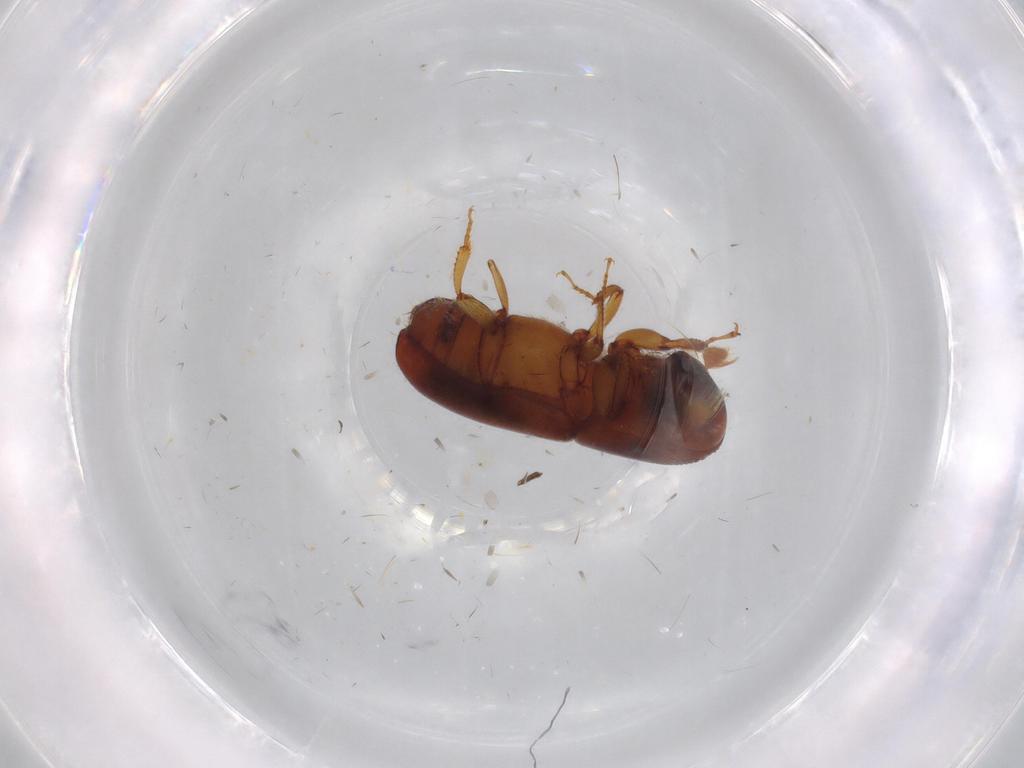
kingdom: Animalia
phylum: Arthropoda
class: Insecta
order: Coleoptera
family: Curculionidae
